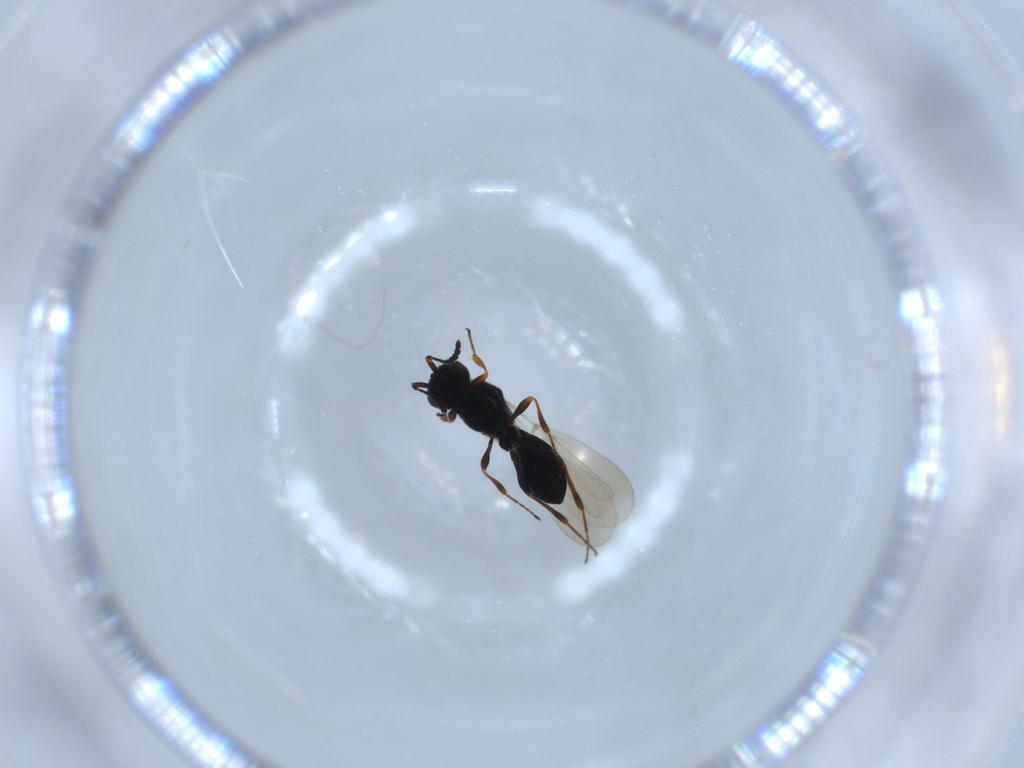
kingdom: Animalia
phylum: Arthropoda
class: Insecta
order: Hymenoptera
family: Platygastridae
